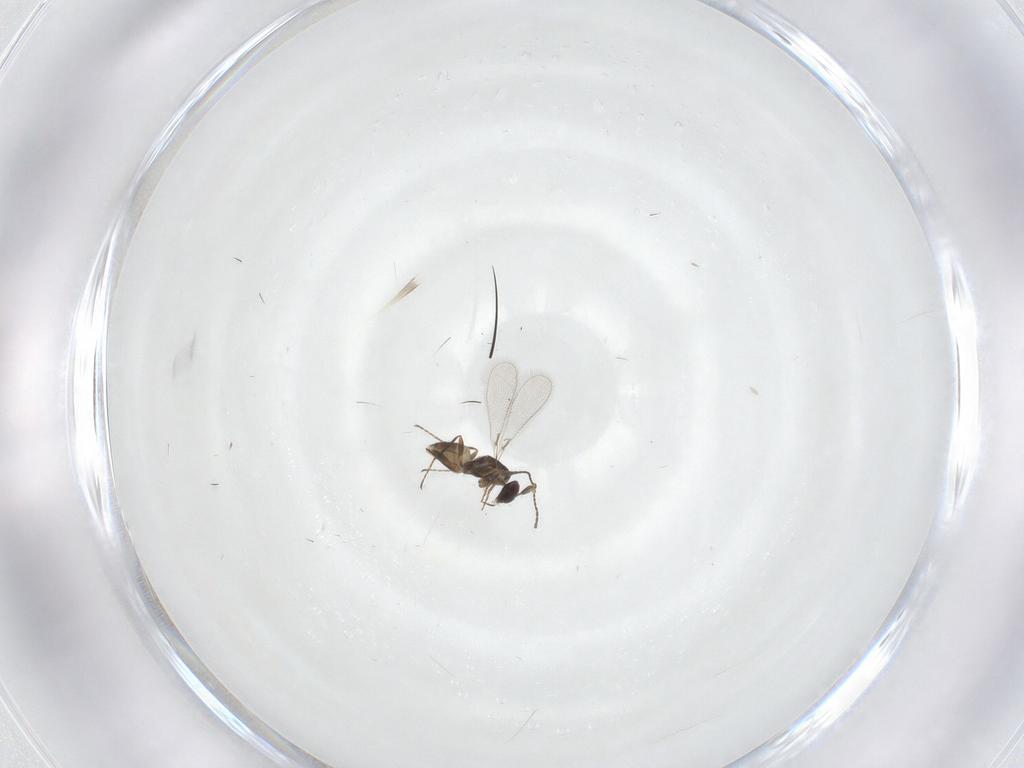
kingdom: Animalia
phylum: Arthropoda
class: Insecta
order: Hymenoptera
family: Mymaridae
